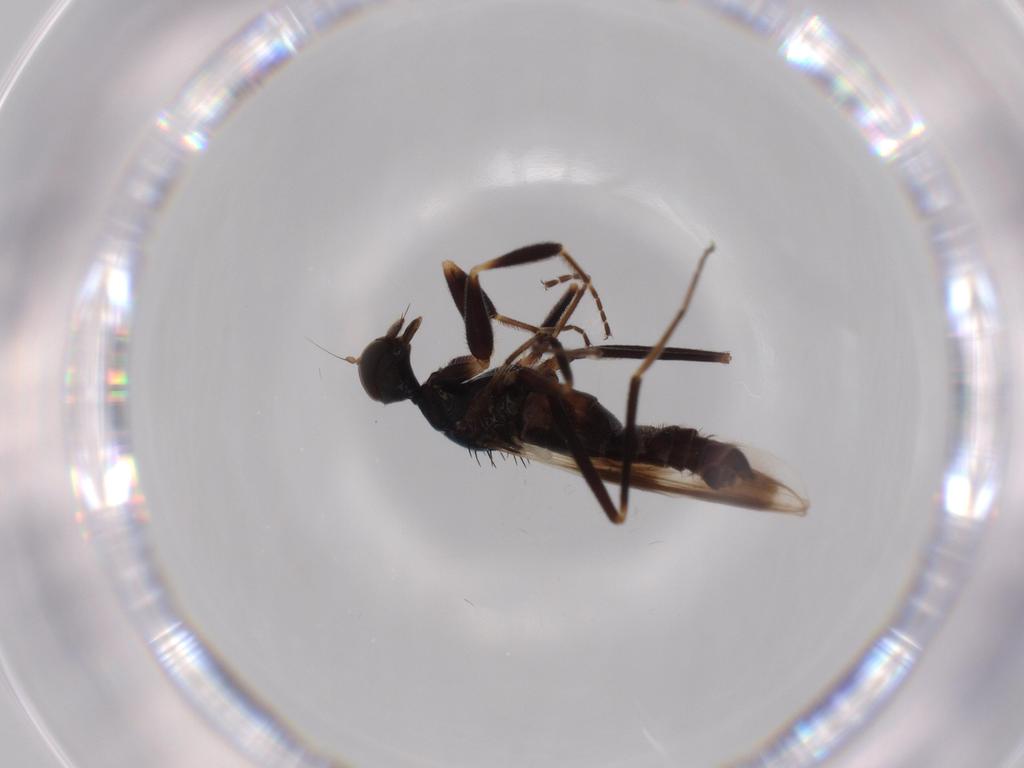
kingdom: Animalia
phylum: Arthropoda
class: Insecta
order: Diptera
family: Hybotidae
